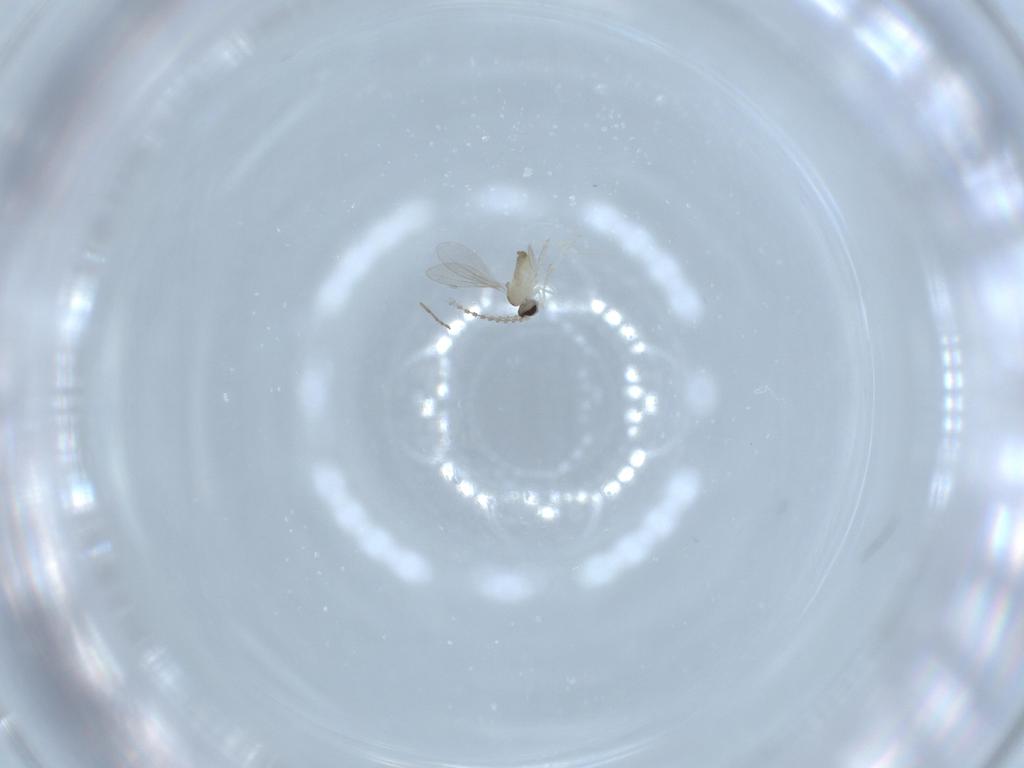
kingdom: Animalia
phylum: Arthropoda
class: Insecta
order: Diptera
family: Cecidomyiidae
